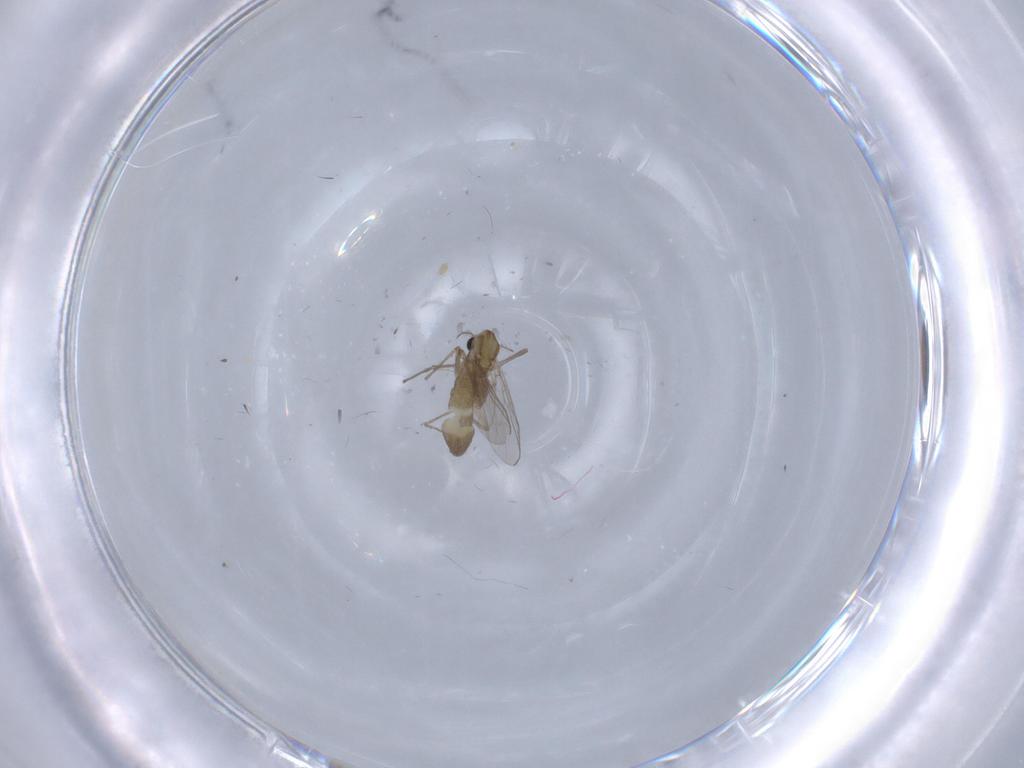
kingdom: Animalia
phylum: Arthropoda
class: Insecta
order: Diptera
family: Chironomidae
